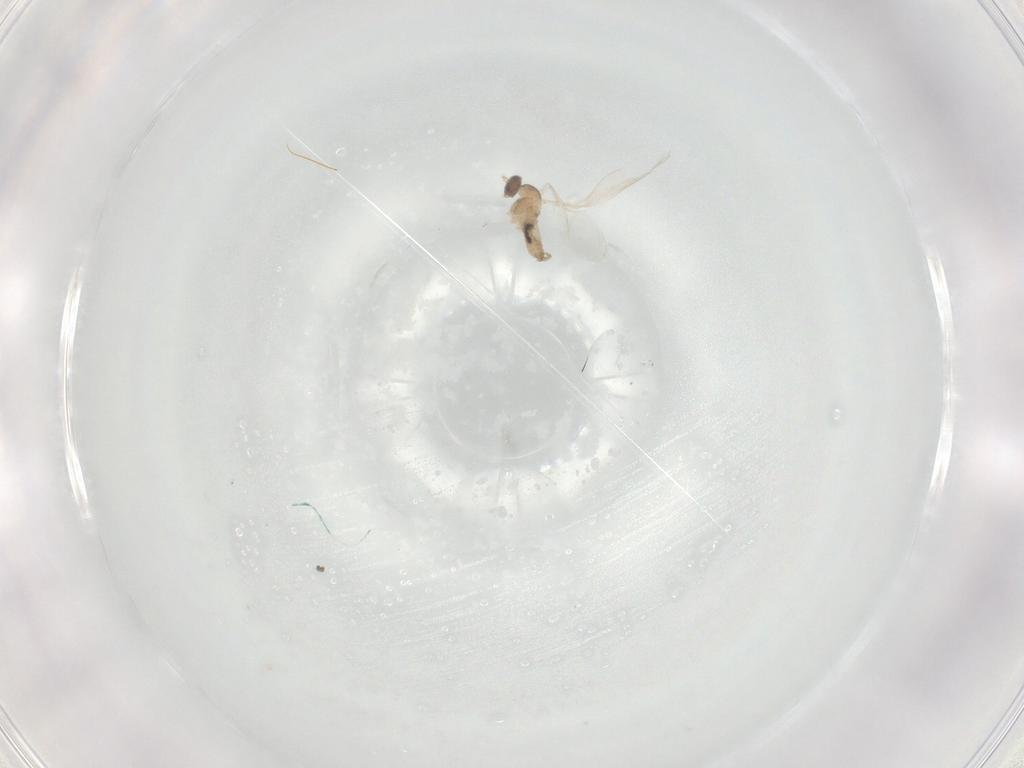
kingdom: Animalia
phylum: Arthropoda
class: Insecta
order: Diptera
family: Cecidomyiidae
